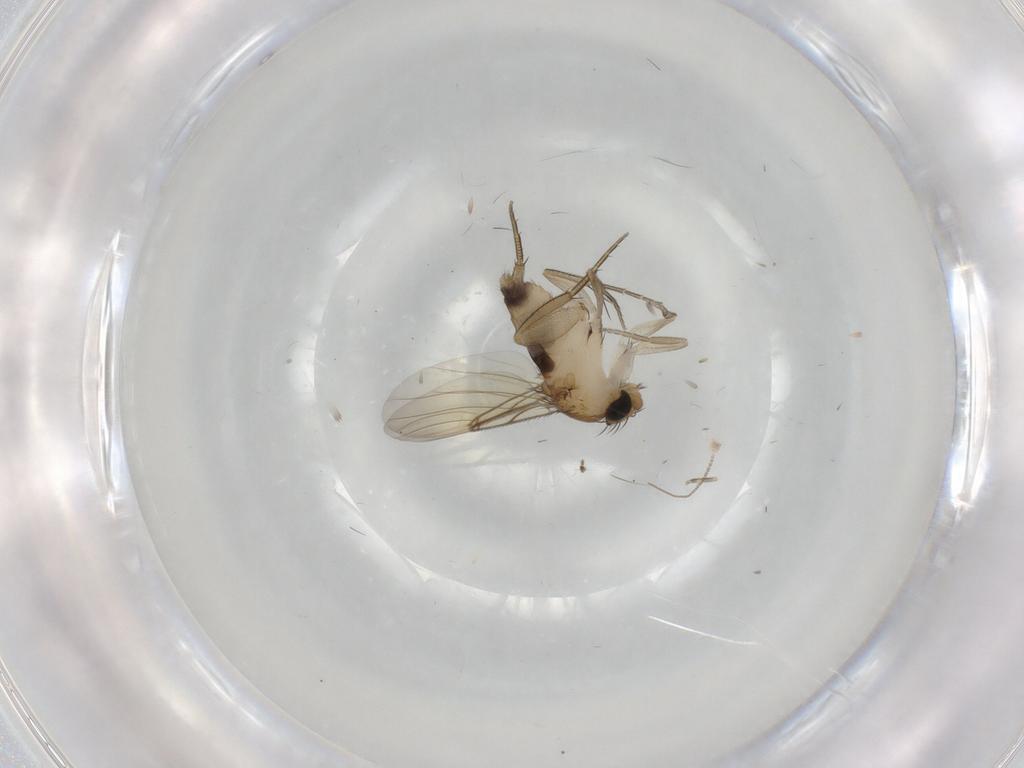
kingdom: Animalia
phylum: Arthropoda
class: Insecta
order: Diptera
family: Phoridae
